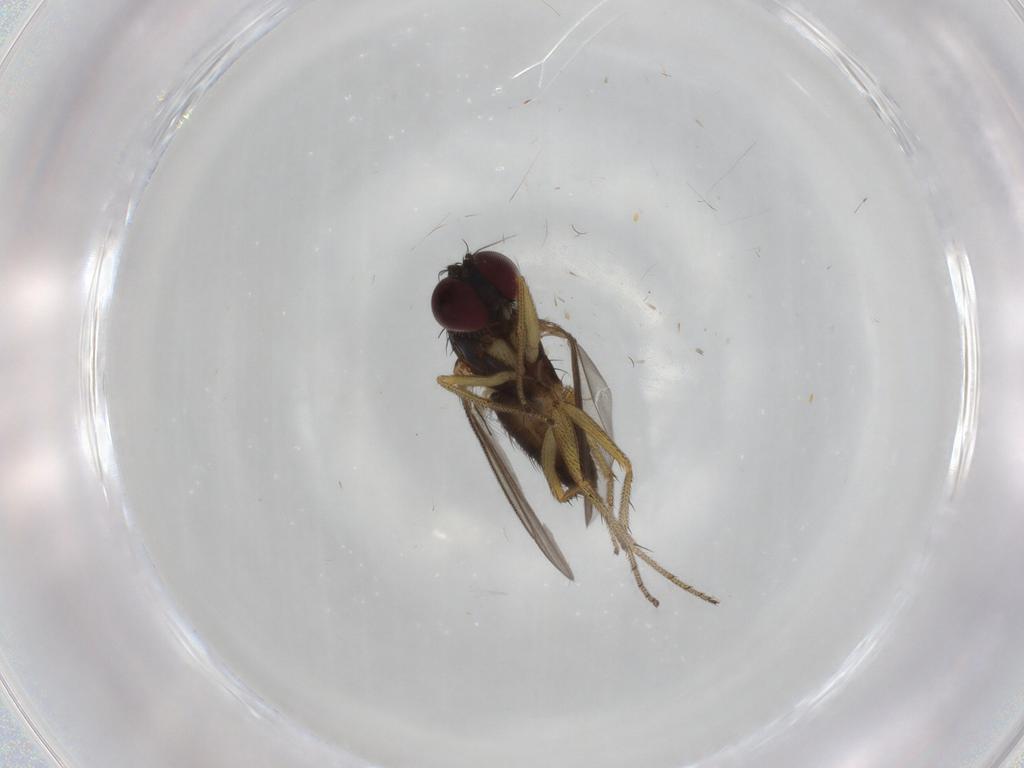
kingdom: Animalia
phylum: Arthropoda
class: Insecta
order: Diptera
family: Dolichopodidae
